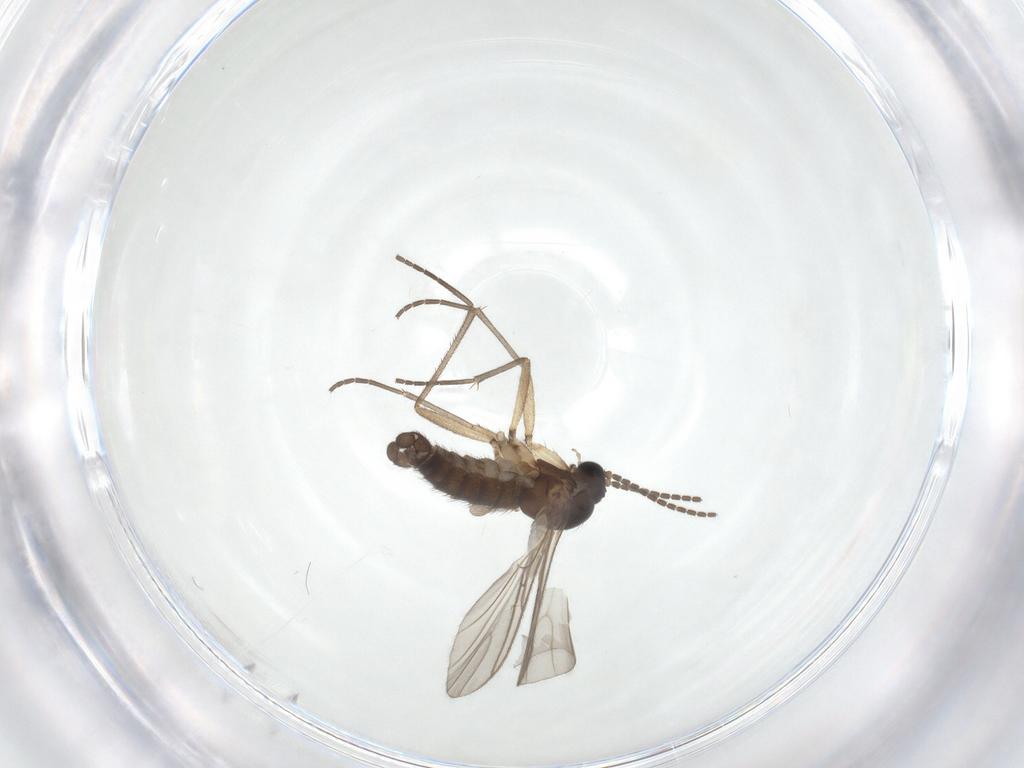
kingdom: Animalia
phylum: Arthropoda
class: Insecta
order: Diptera
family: Sciaridae
